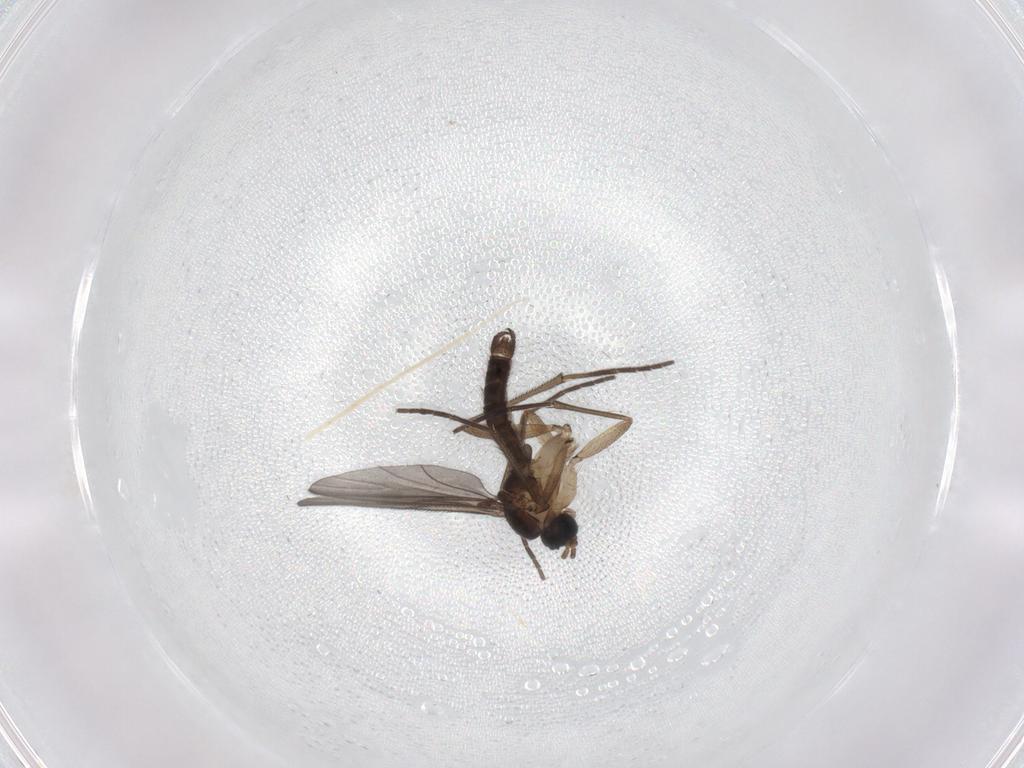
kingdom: Animalia
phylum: Arthropoda
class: Insecta
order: Diptera
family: Sciaridae
